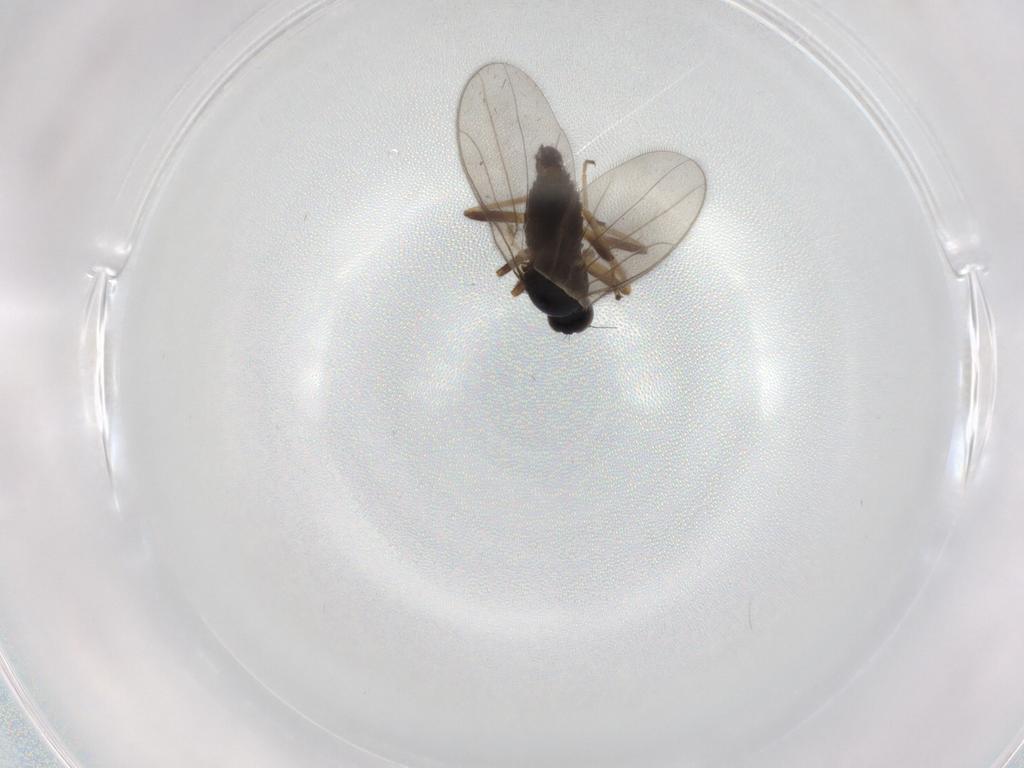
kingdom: Animalia
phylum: Arthropoda
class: Insecta
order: Diptera
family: Hybotidae
